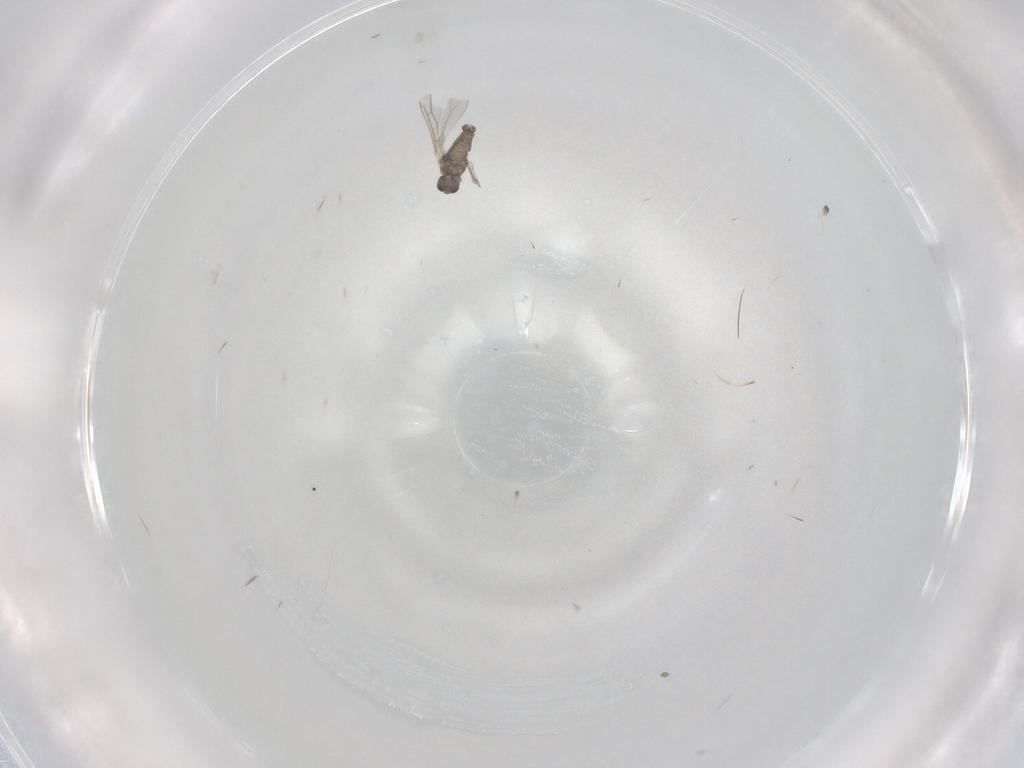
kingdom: Animalia
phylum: Arthropoda
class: Insecta
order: Diptera
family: Cecidomyiidae
